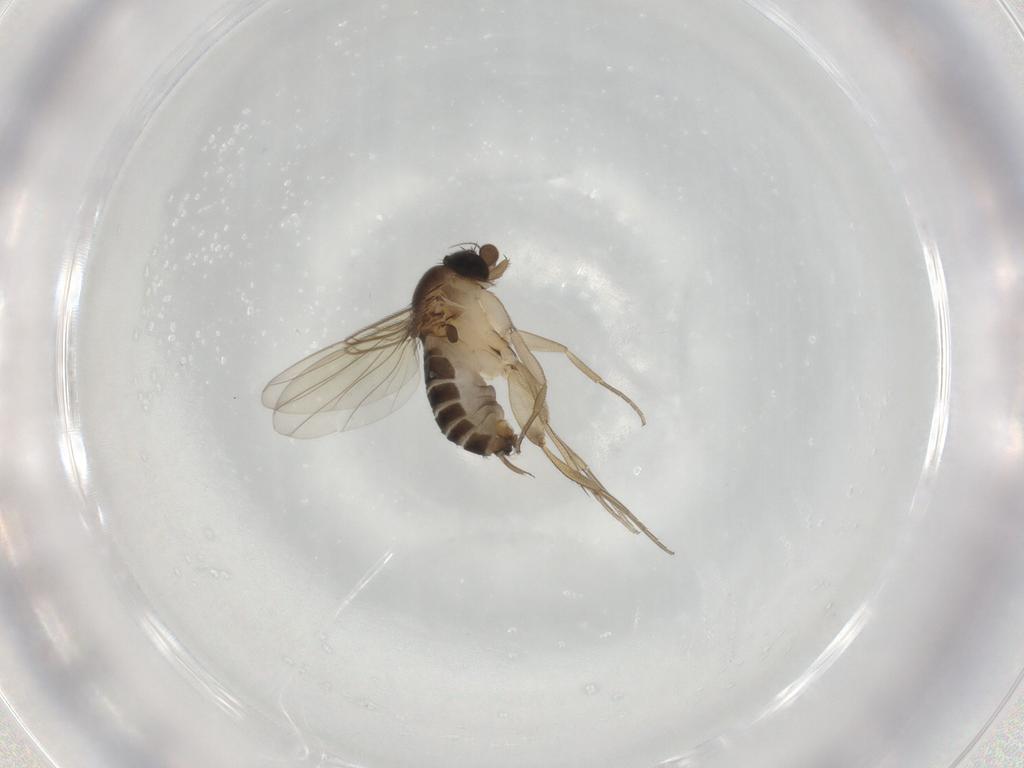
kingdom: Animalia
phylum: Arthropoda
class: Insecta
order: Diptera
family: Phoridae
